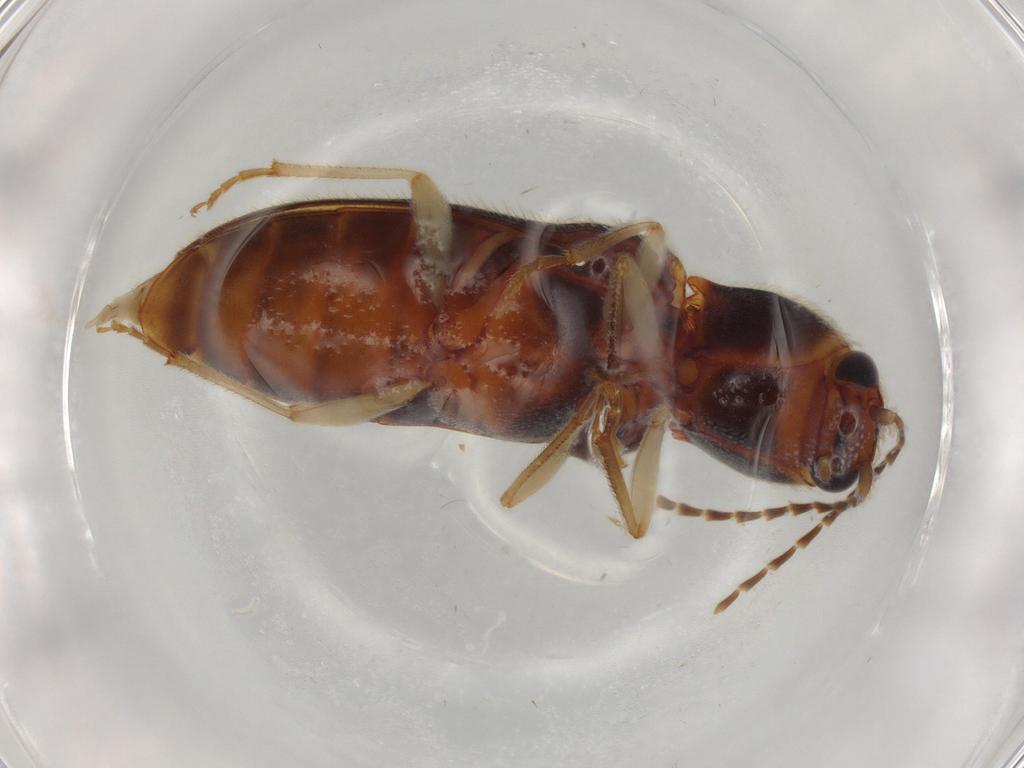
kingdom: Animalia
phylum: Arthropoda
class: Insecta
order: Coleoptera
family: Elateridae
